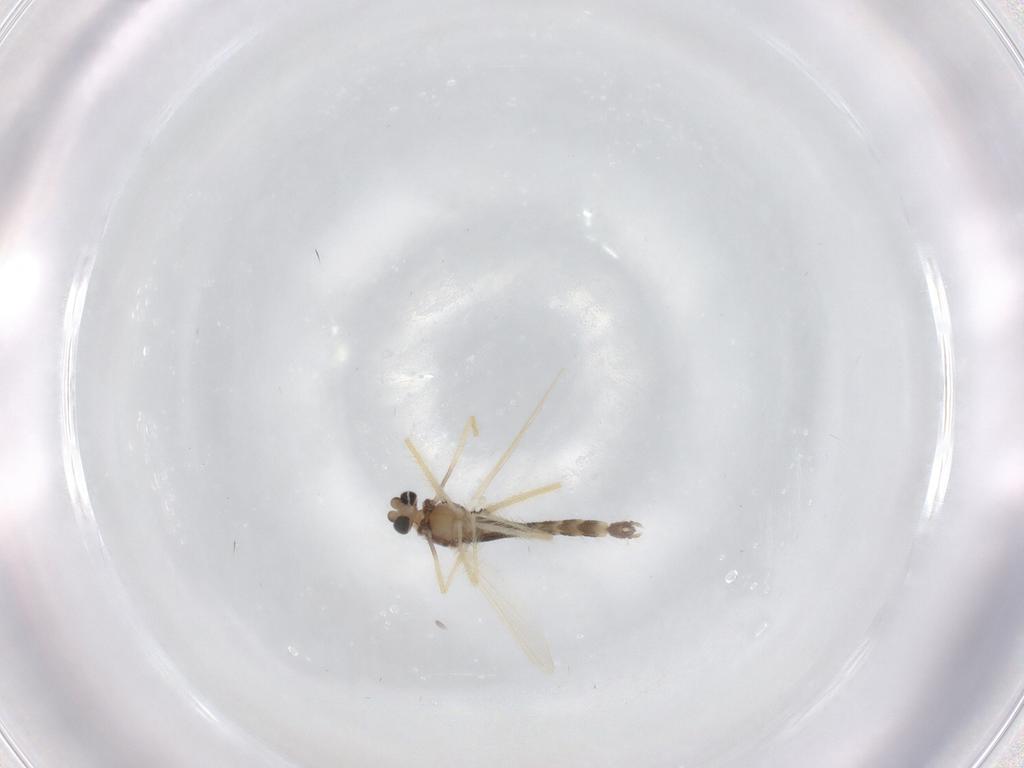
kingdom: Animalia
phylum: Arthropoda
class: Insecta
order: Diptera
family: Chironomidae
